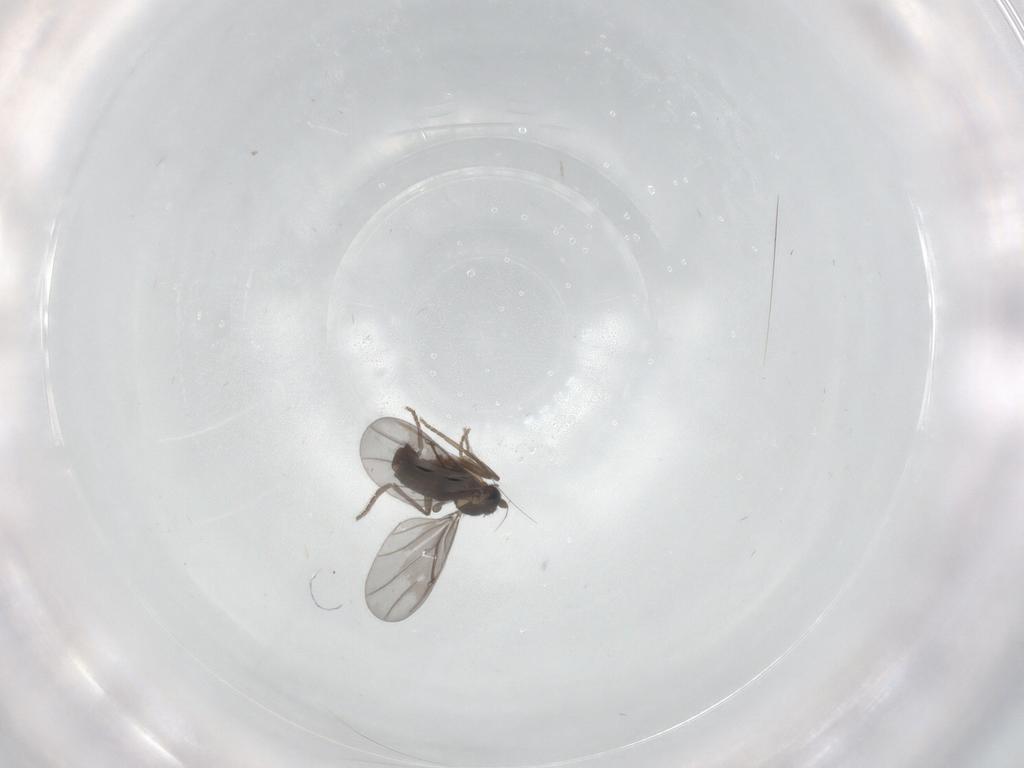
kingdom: Animalia
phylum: Arthropoda
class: Insecta
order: Diptera
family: Phoridae
